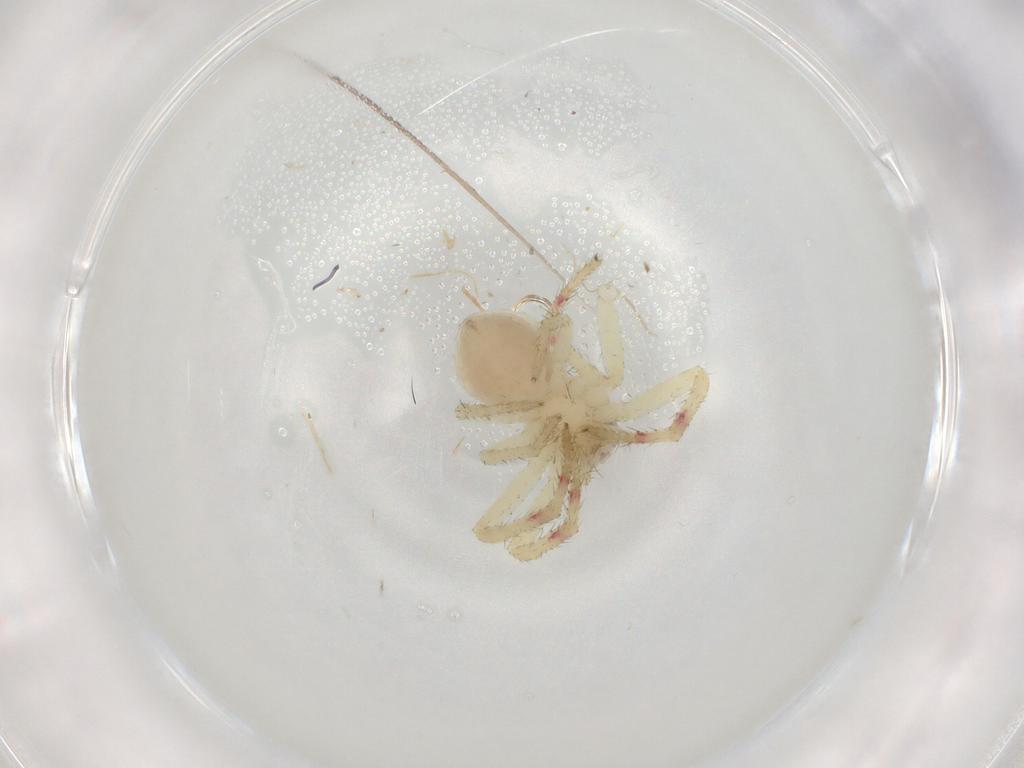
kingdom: Animalia
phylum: Arthropoda
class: Arachnida
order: Araneae
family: Thomisidae
